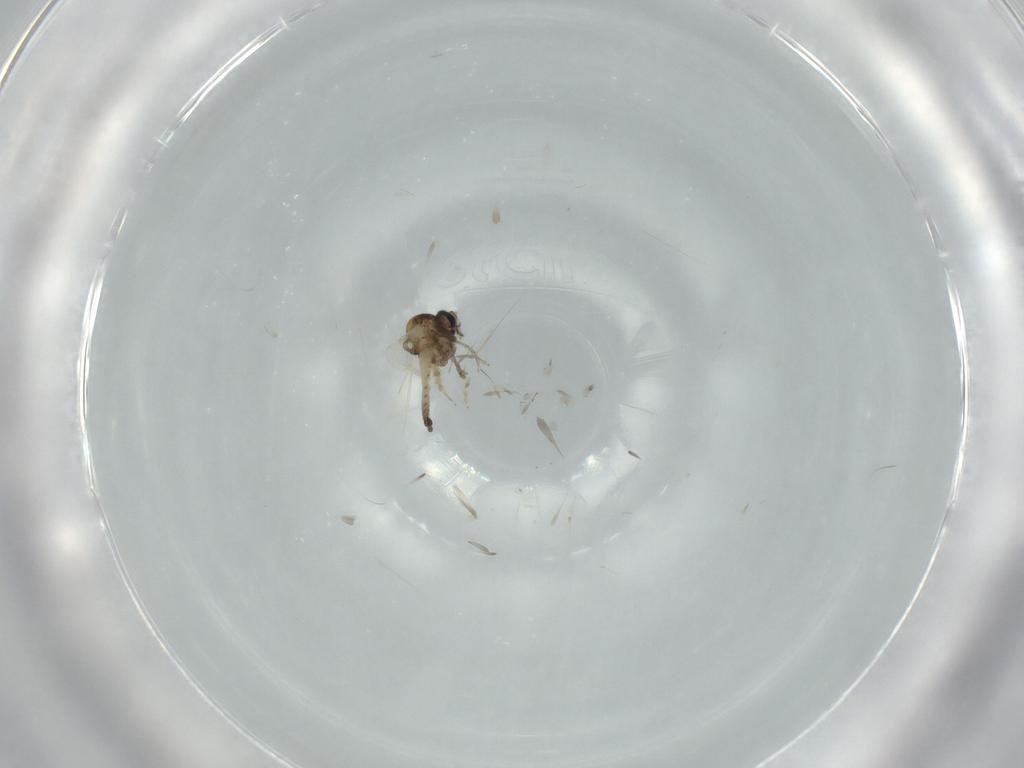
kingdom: Animalia
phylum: Arthropoda
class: Insecta
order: Diptera
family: Ceratopogonidae
